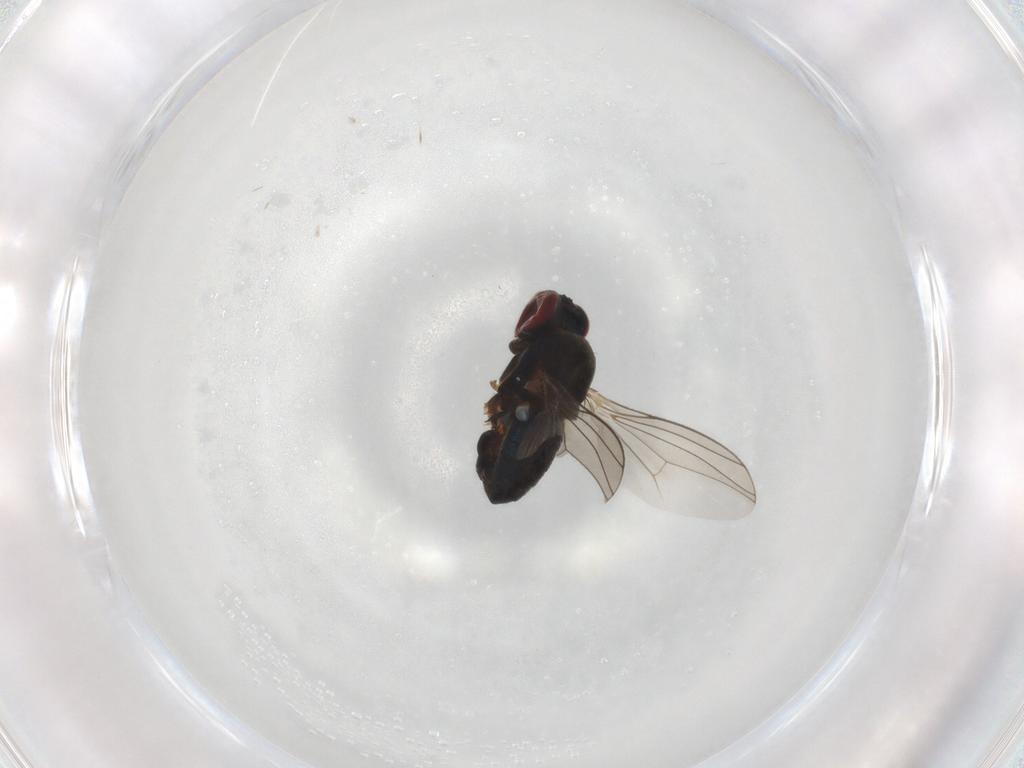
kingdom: Animalia
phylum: Arthropoda
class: Insecta
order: Diptera
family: Dolichopodidae
